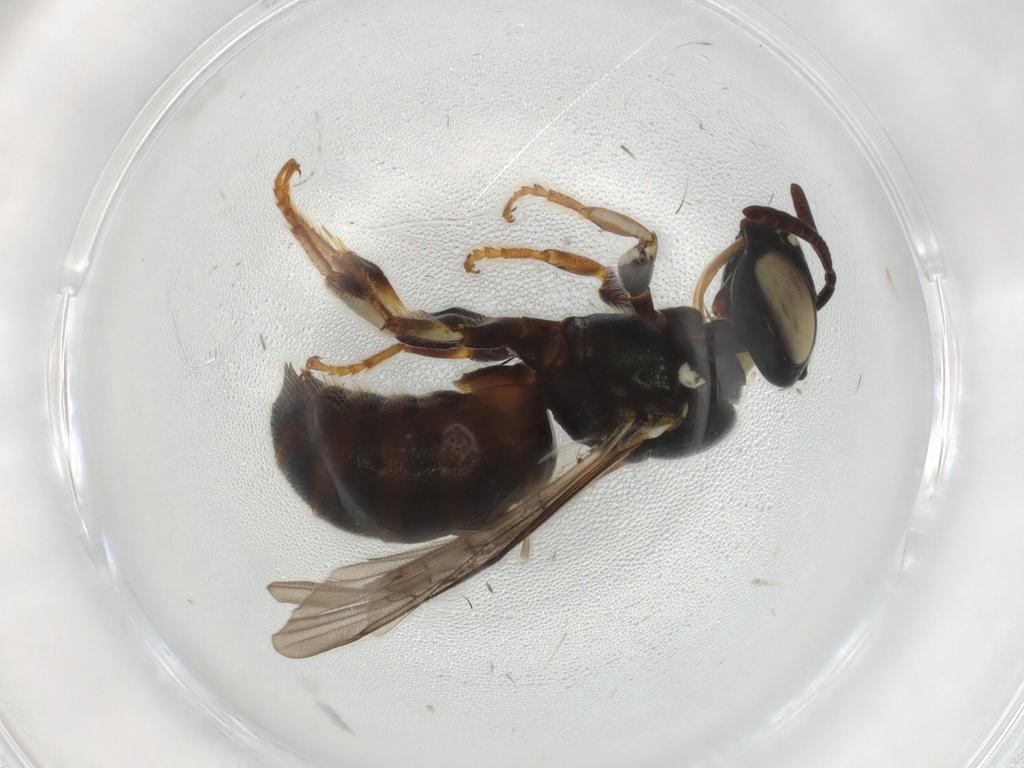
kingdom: Animalia
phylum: Arthropoda
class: Insecta
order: Hymenoptera
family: Apidae
